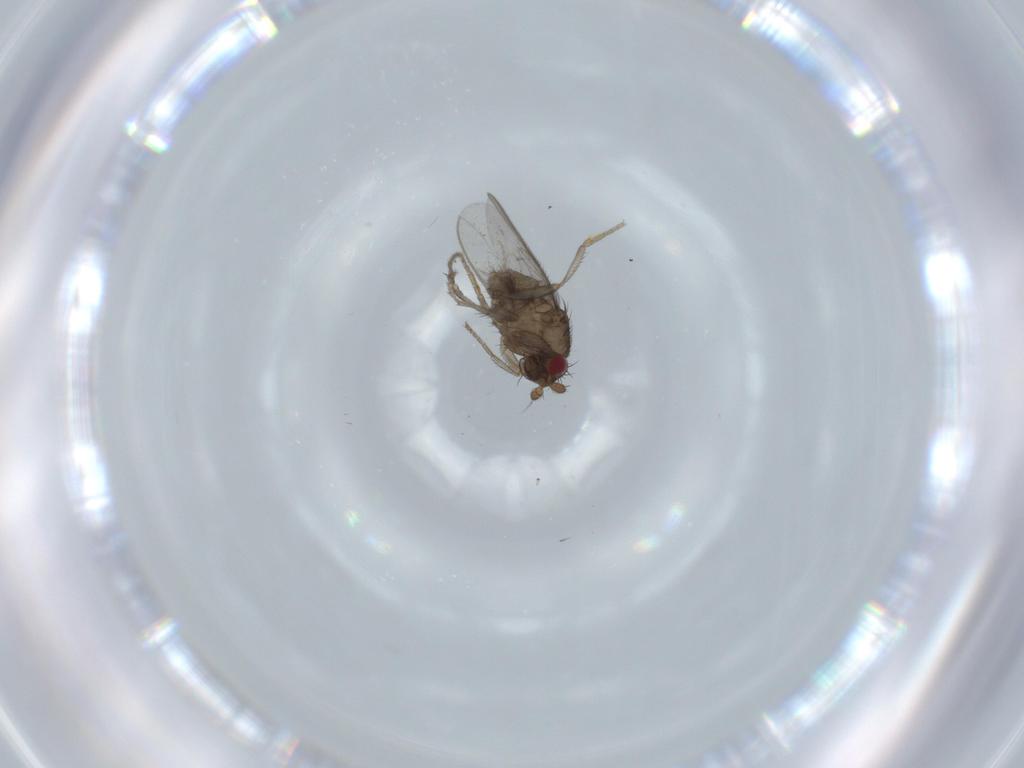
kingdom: Animalia
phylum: Arthropoda
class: Insecta
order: Diptera
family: Cecidomyiidae
